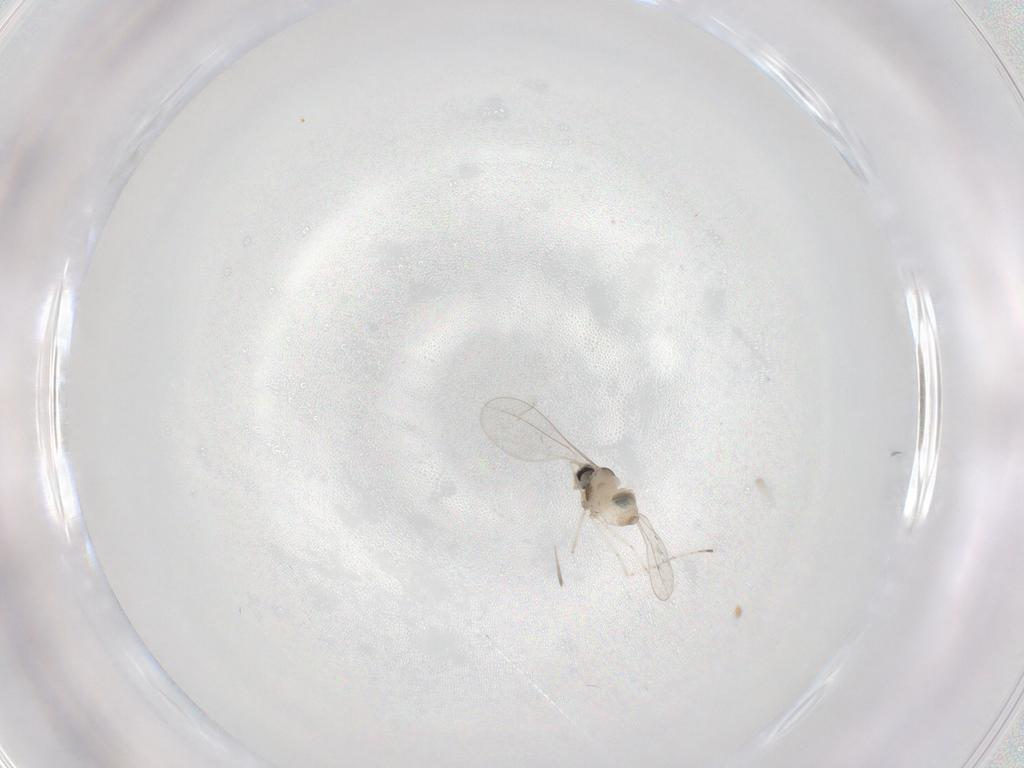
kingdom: Animalia
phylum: Arthropoda
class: Insecta
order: Diptera
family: Cecidomyiidae
